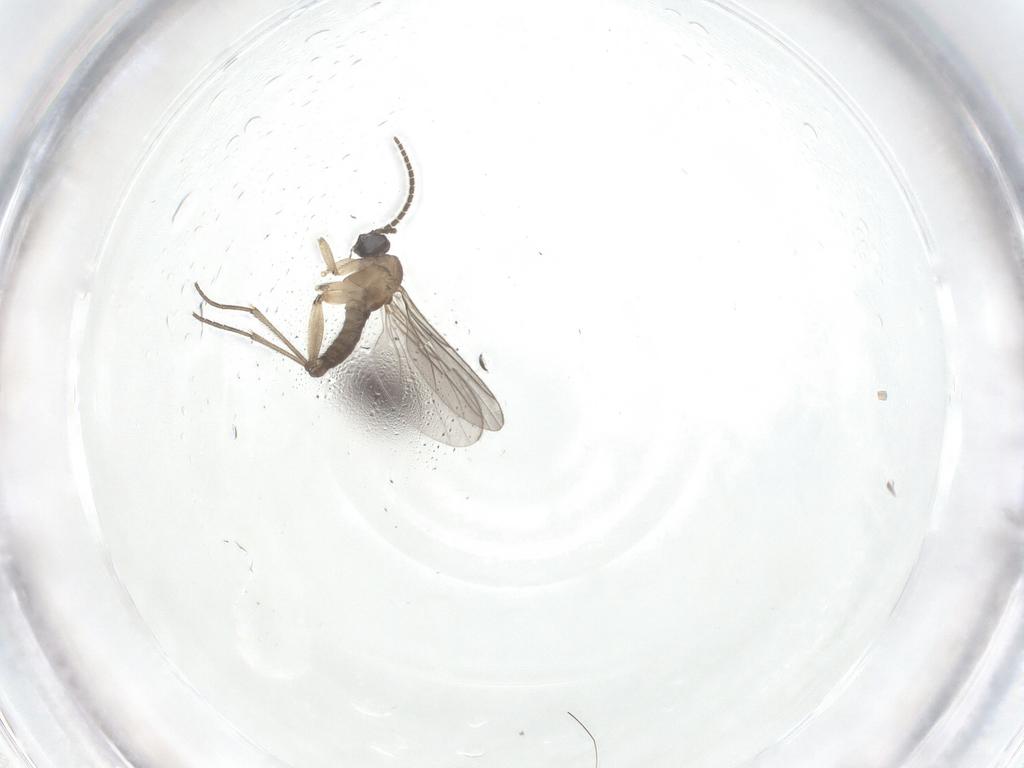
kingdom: Animalia
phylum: Arthropoda
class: Insecta
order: Diptera
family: Sciaridae
